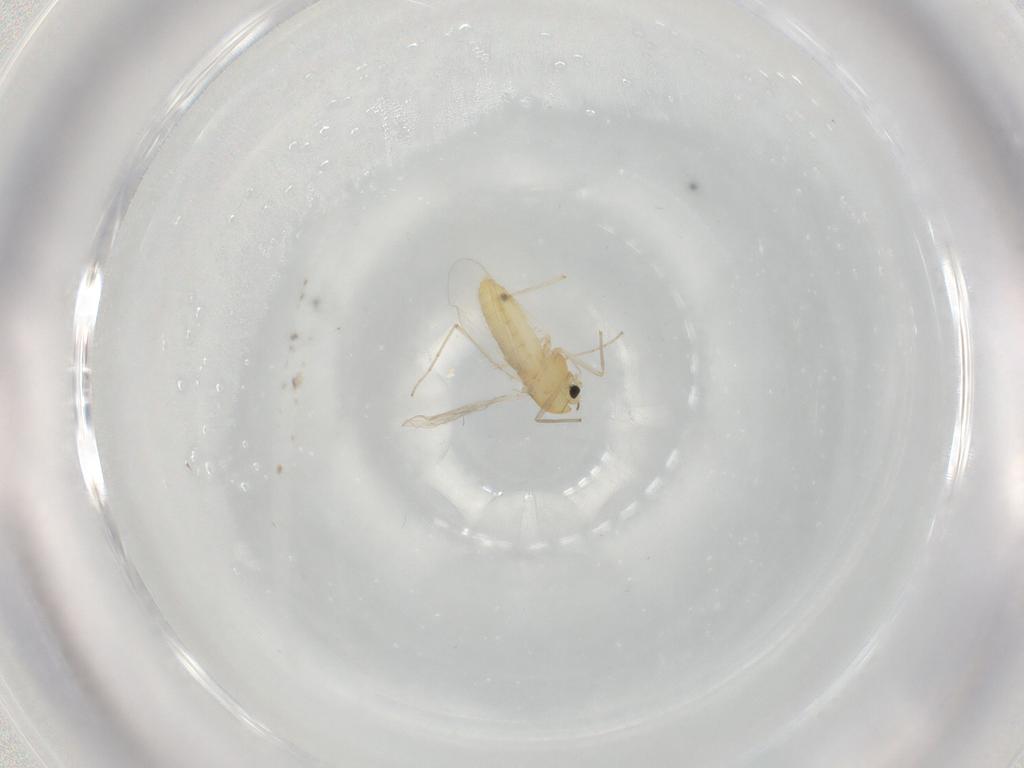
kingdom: Animalia
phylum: Arthropoda
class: Insecta
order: Diptera
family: Chironomidae
